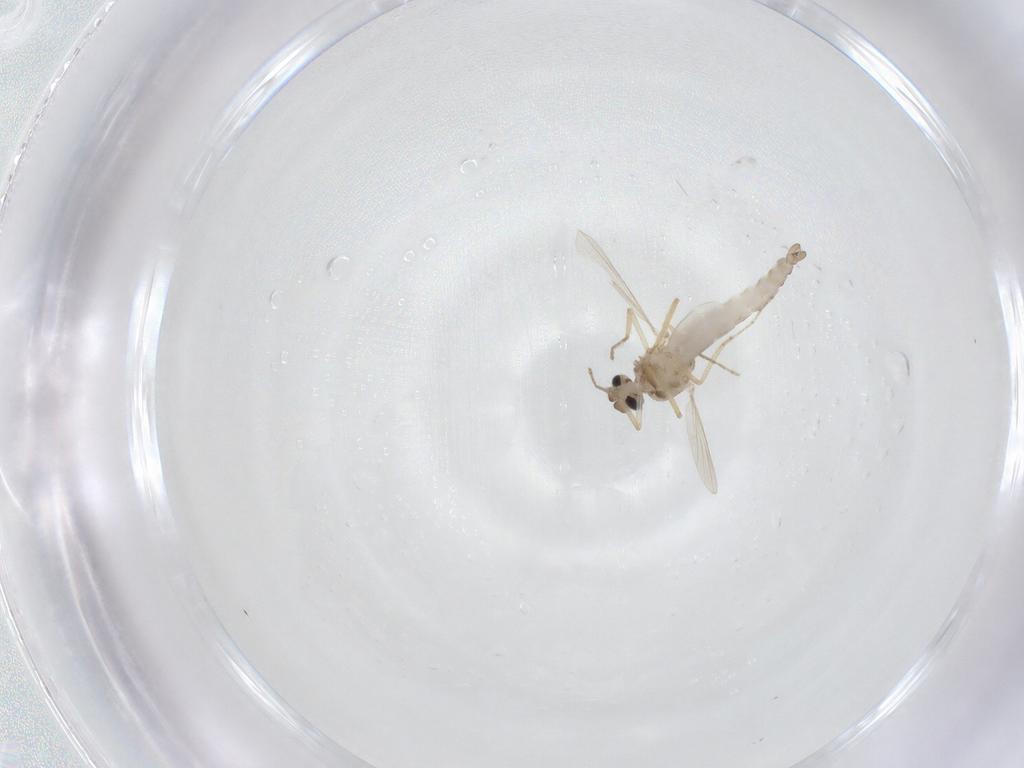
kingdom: Animalia
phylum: Arthropoda
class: Insecta
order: Diptera
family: Ceratopogonidae
